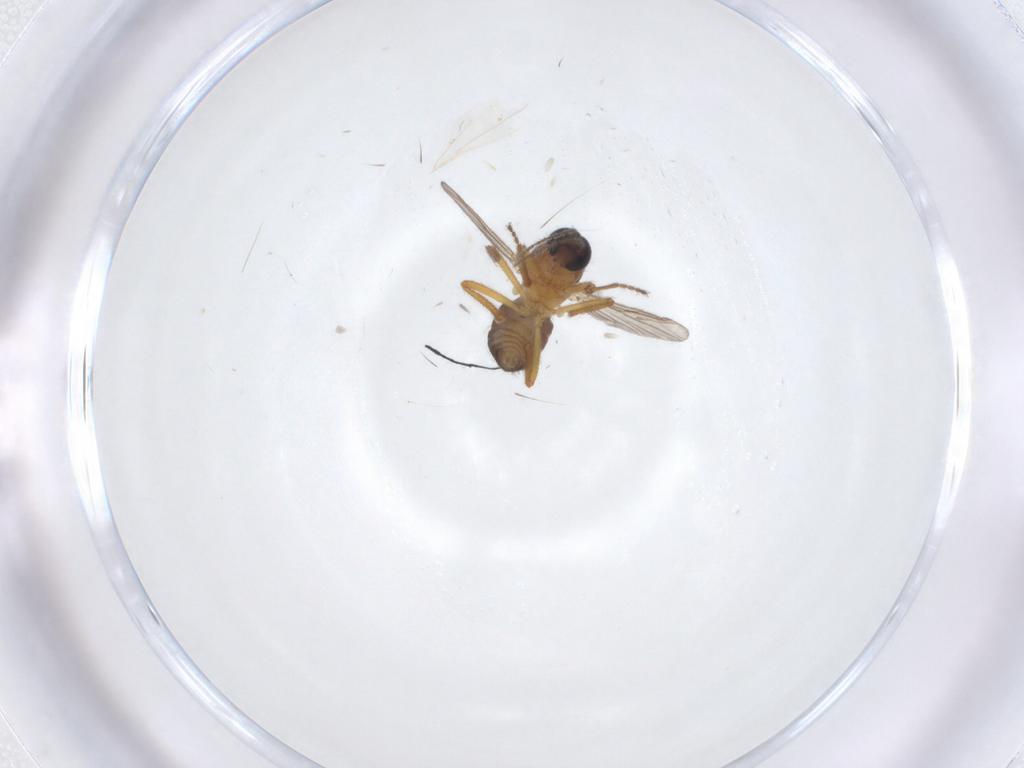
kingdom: Animalia
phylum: Arthropoda
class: Insecta
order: Diptera
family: Ceratopogonidae
